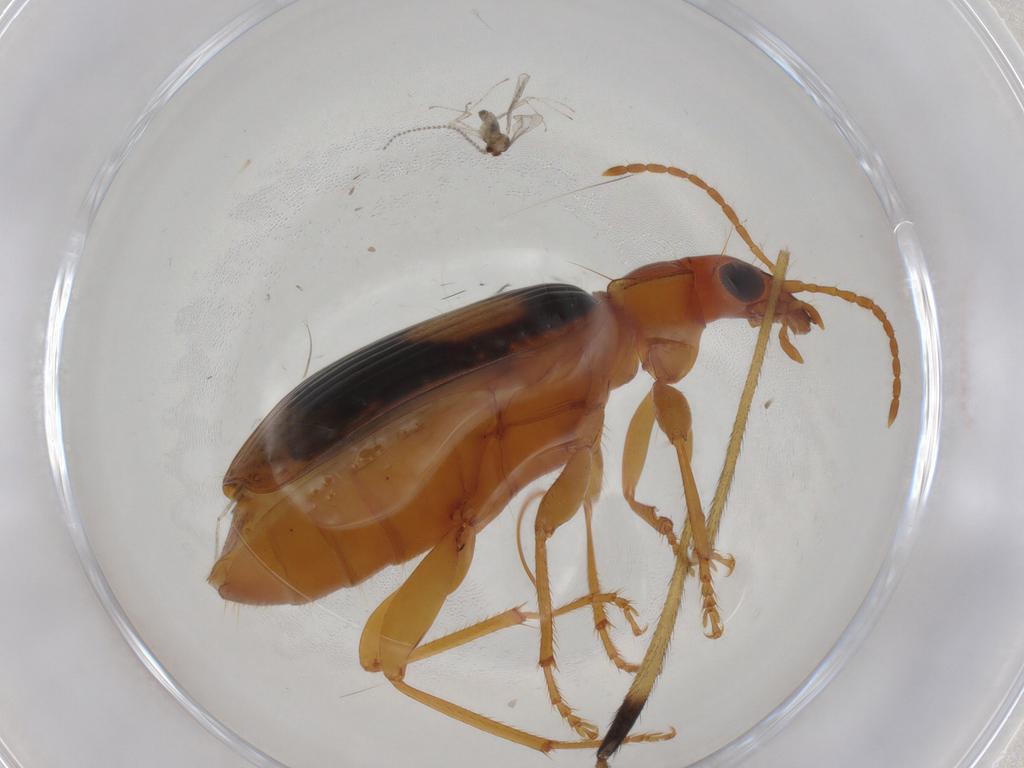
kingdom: Animalia
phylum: Arthropoda
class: Insecta
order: Diptera
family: Limoniidae
